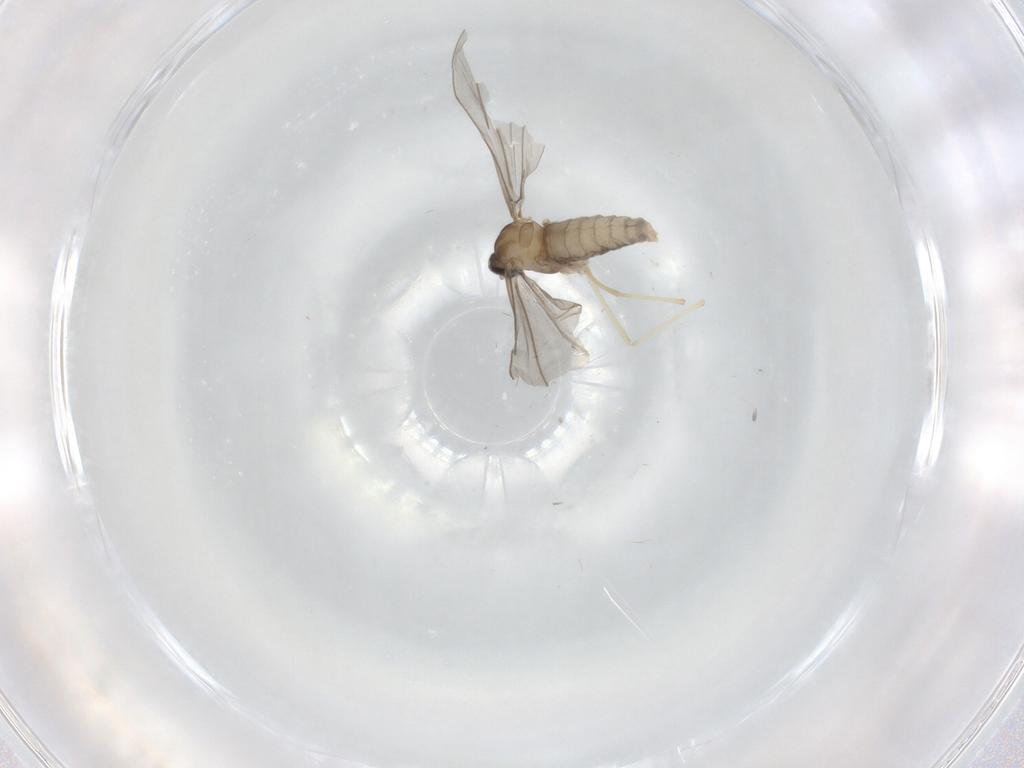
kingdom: Animalia
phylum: Arthropoda
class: Insecta
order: Diptera
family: Cecidomyiidae
